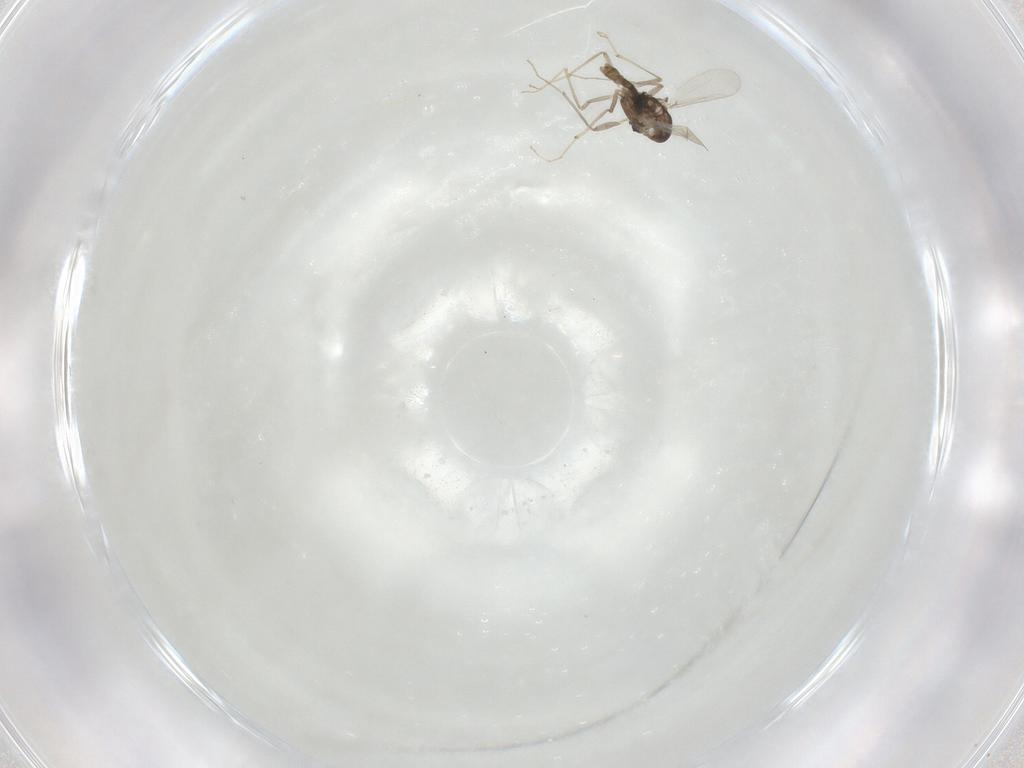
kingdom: Animalia
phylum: Arthropoda
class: Insecta
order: Diptera
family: Chironomidae
